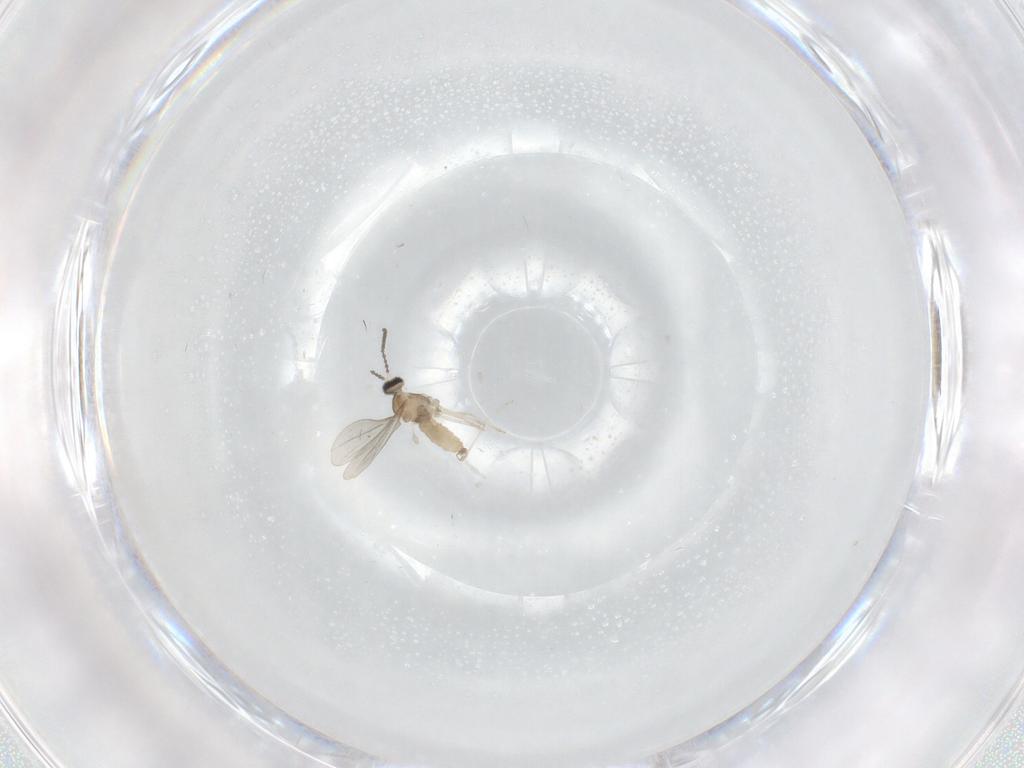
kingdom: Animalia
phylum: Arthropoda
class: Insecta
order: Diptera
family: Cecidomyiidae
